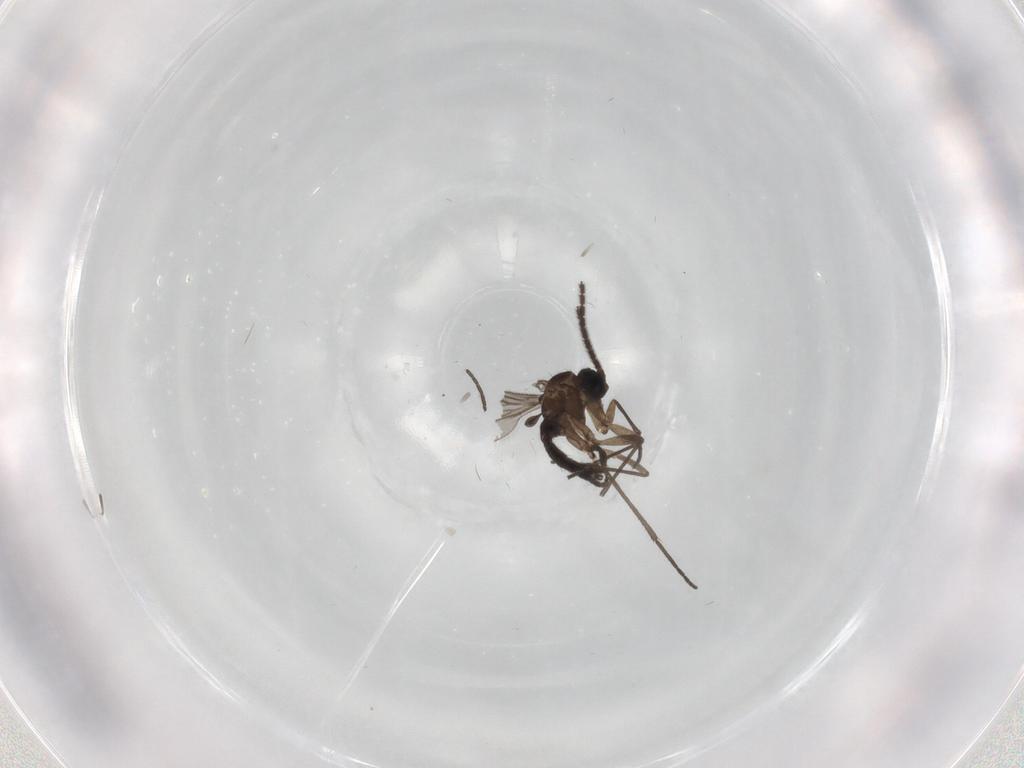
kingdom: Animalia
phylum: Arthropoda
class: Insecta
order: Diptera
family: Sciaridae
